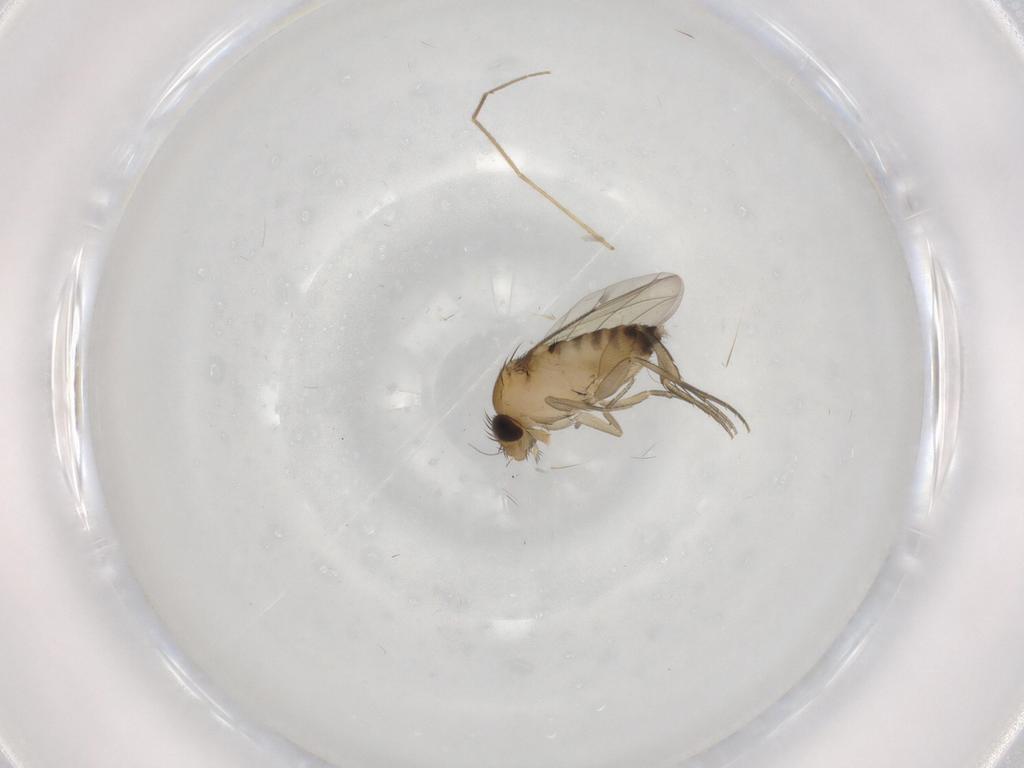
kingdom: Animalia
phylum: Arthropoda
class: Insecta
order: Diptera
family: Phoridae
